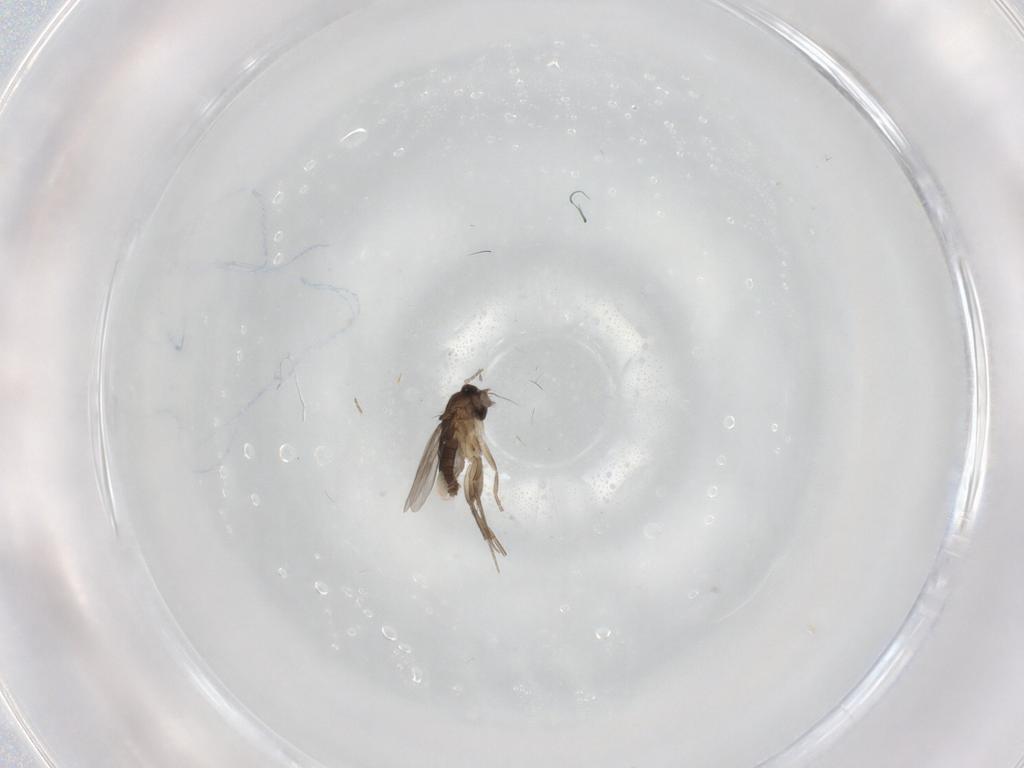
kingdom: Animalia
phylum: Arthropoda
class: Insecta
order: Diptera
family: Phoridae
